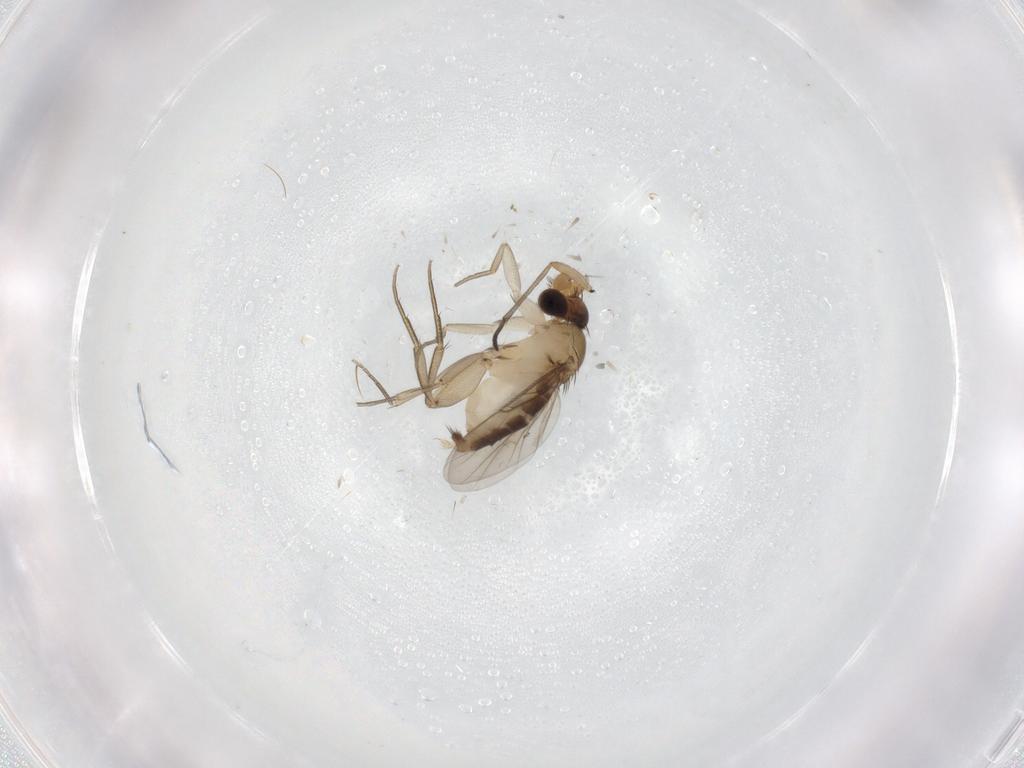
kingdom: Animalia
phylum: Arthropoda
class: Insecta
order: Diptera
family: Phoridae
